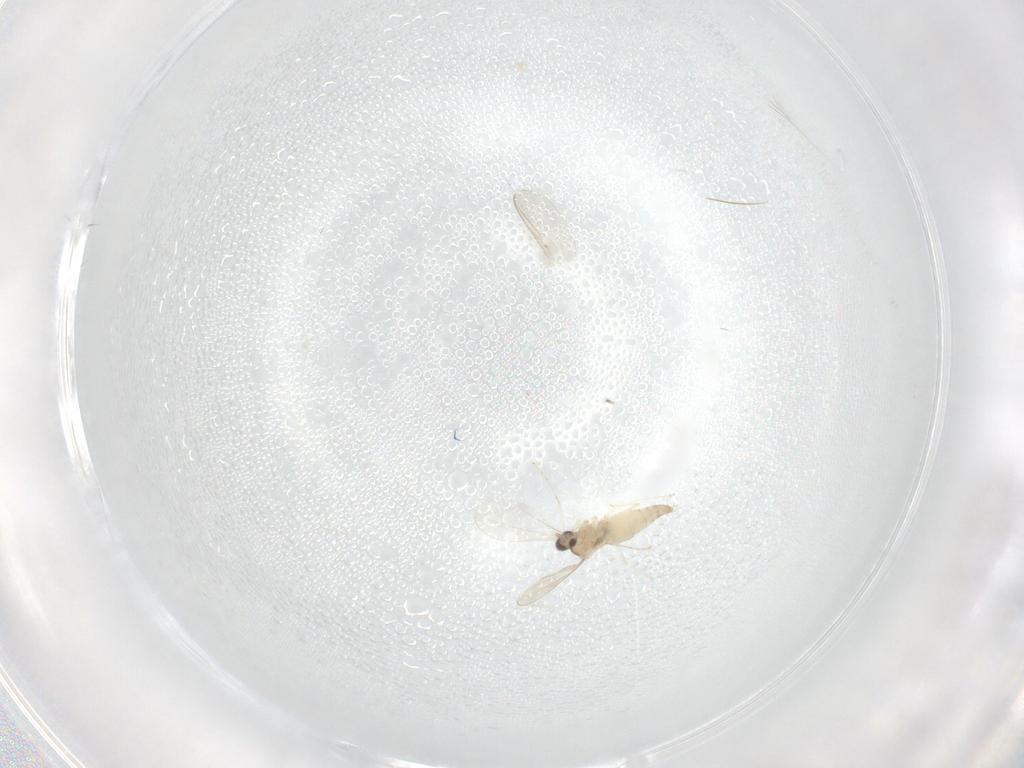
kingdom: Animalia
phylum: Arthropoda
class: Insecta
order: Diptera
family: Cecidomyiidae
